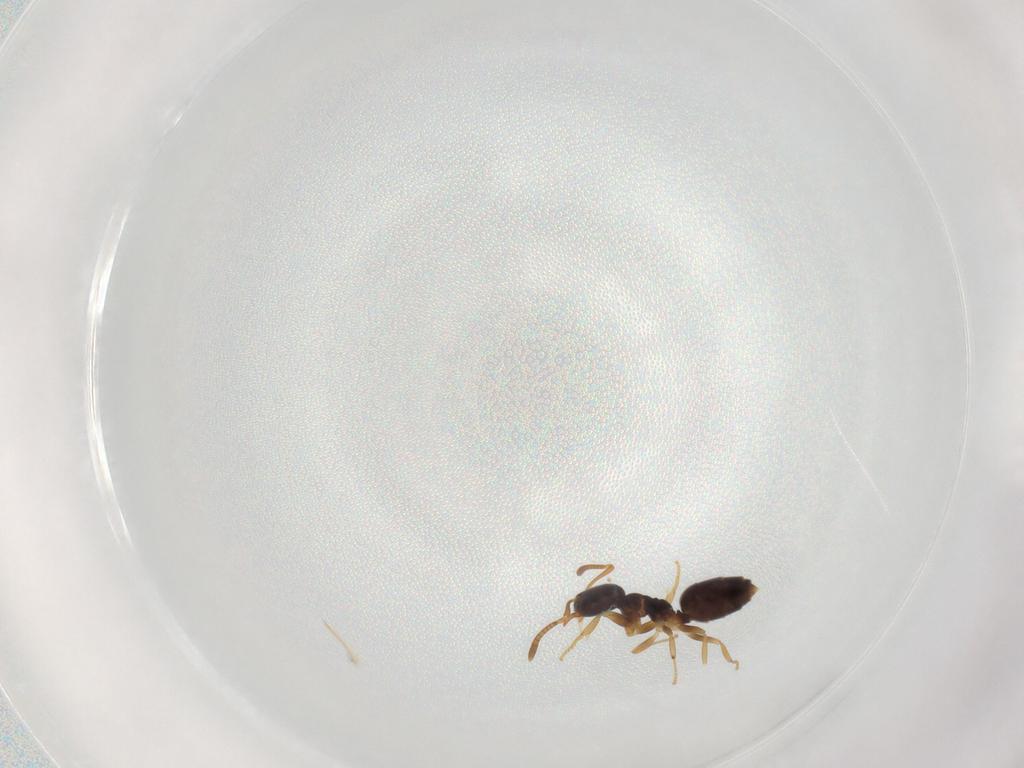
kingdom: Animalia
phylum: Arthropoda
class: Insecta
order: Hymenoptera
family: Formicidae
